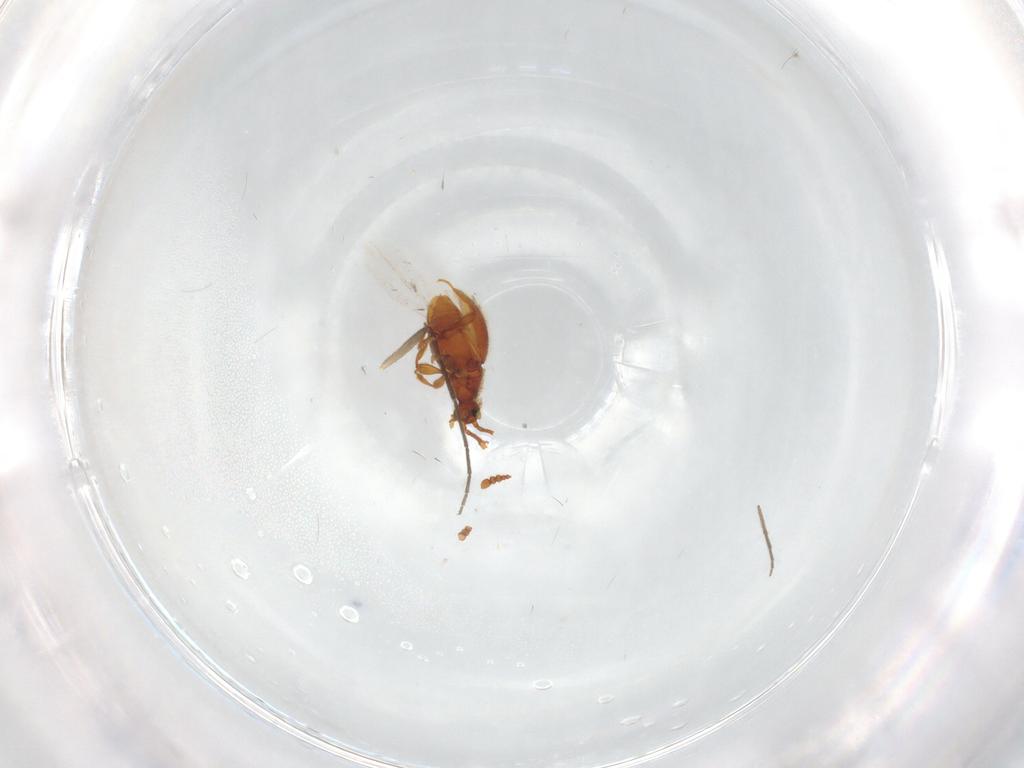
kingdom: Animalia
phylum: Arthropoda
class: Insecta
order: Coleoptera
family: Staphylinidae
